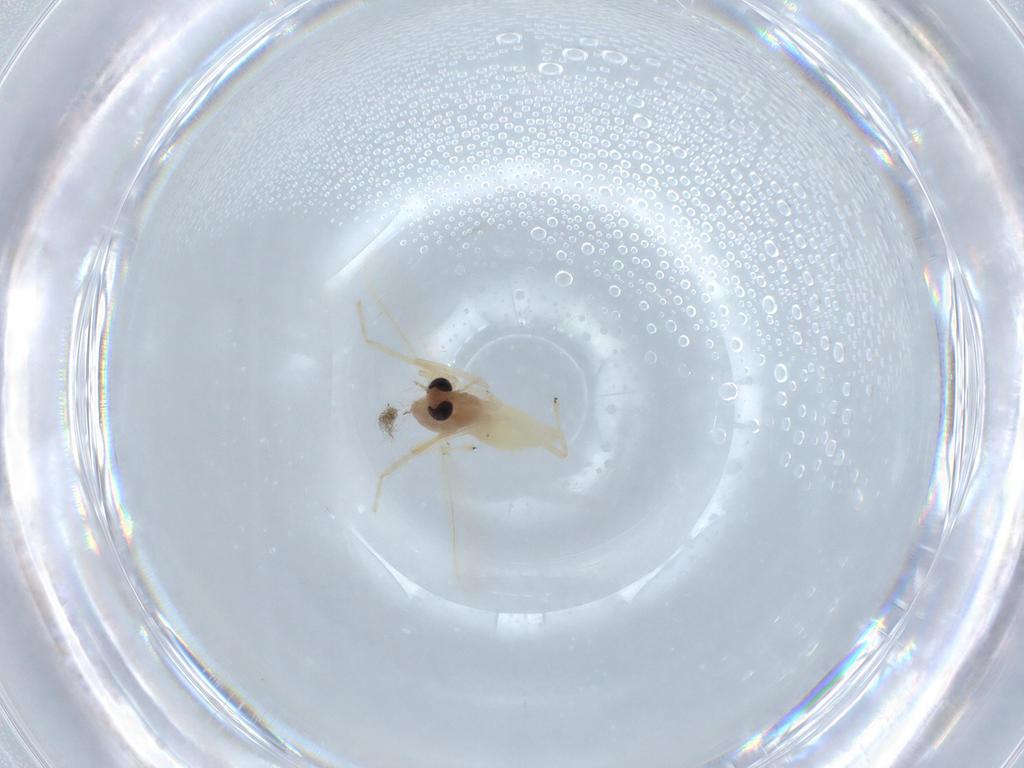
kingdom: Animalia
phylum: Arthropoda
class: Insecta
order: Diptera
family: Chironomidae
